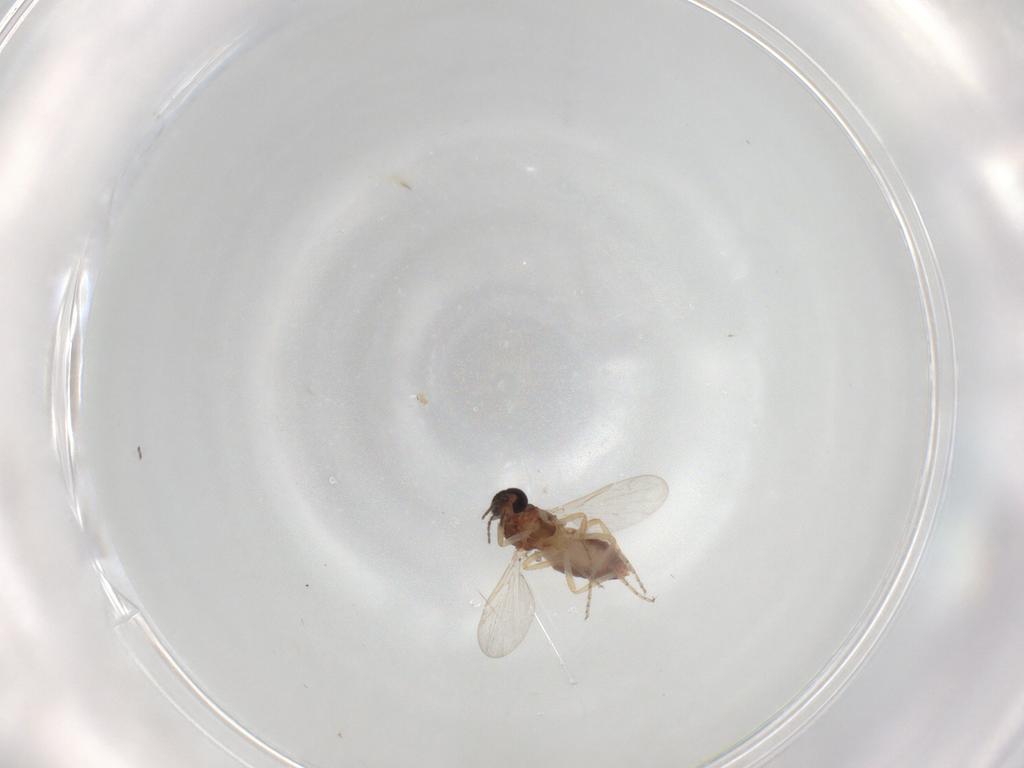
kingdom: Animalia
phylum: Arthropoda
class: Insecta
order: Diptera
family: Ceratopogonidae
